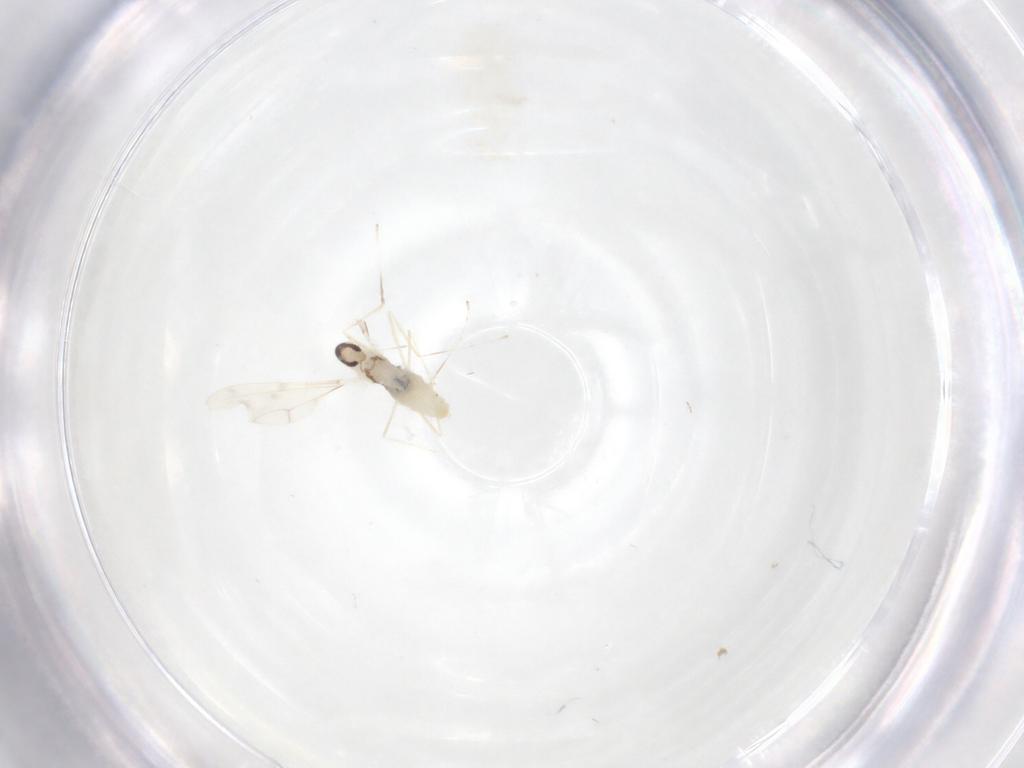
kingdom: Animalia
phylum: Arthropoda
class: Insecta
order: Diptera
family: Cecidomyiidae
